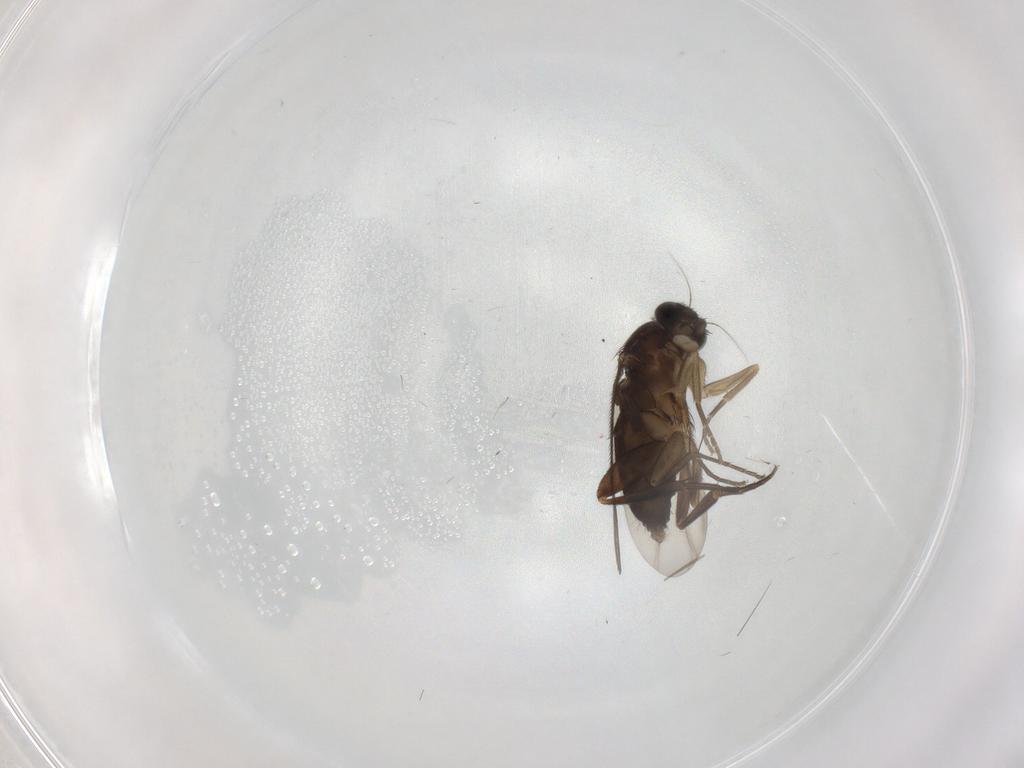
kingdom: Animalia
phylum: Arthropoda
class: Insecta
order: Diptera
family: Phoridae
